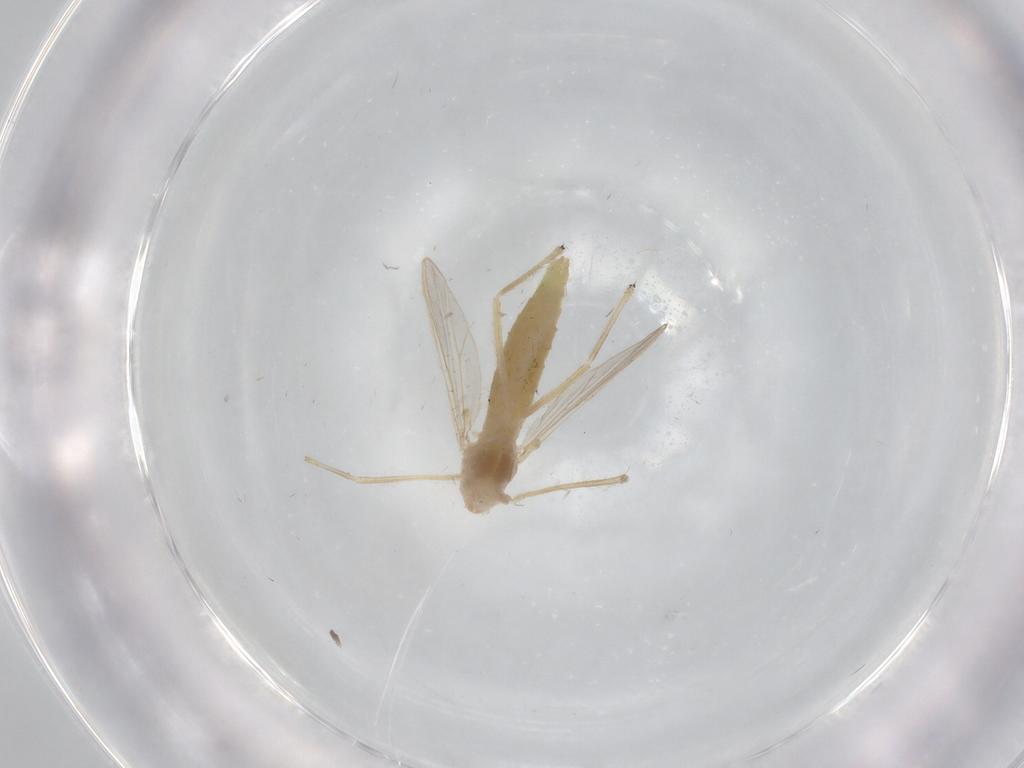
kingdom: Animalia
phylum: Arthropoda
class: Insecta
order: Diptera
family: Chironomidae
